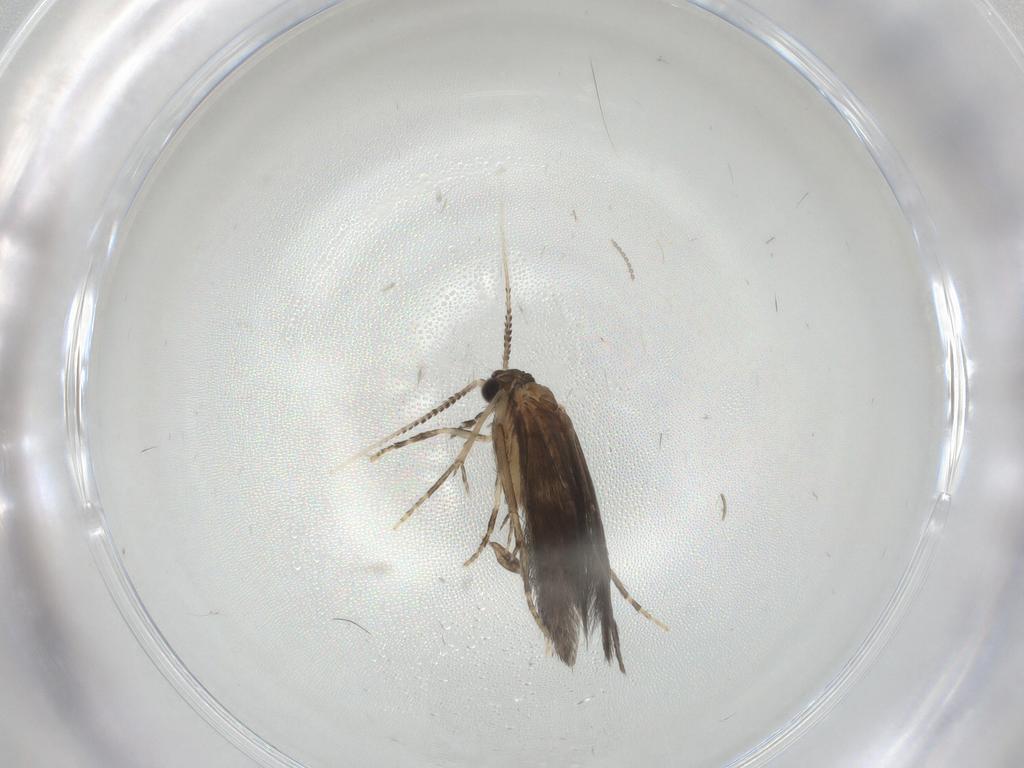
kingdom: Animalia
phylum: Arthropoda
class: Insecta
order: Trichoptera
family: Hydroptilidae
